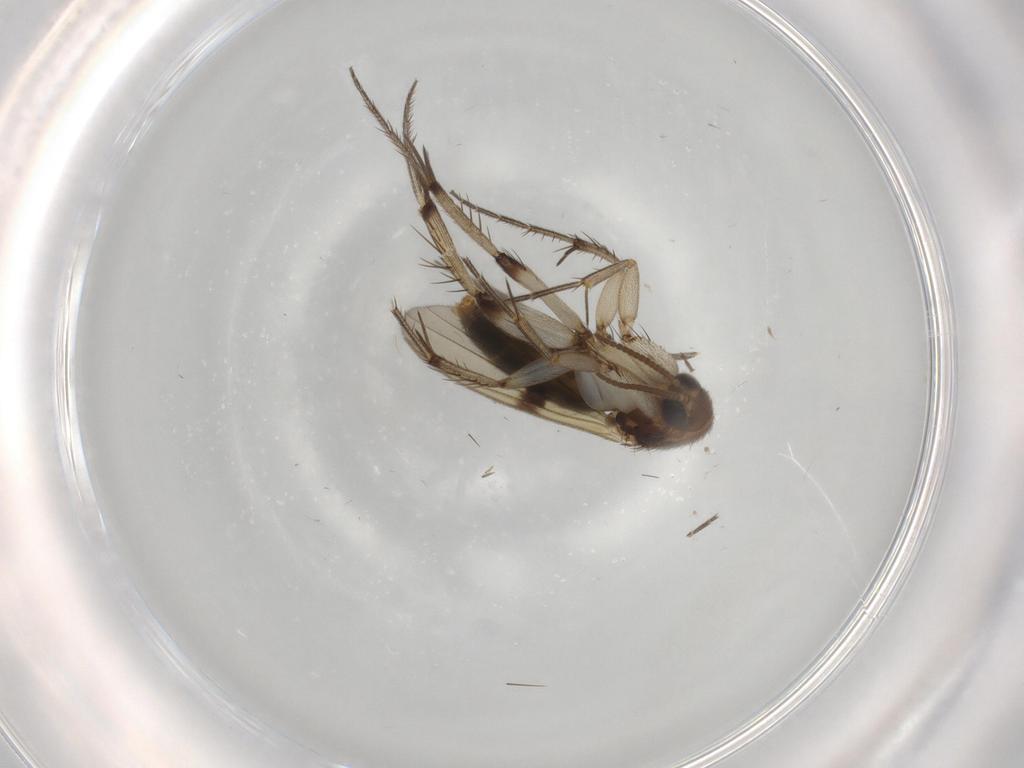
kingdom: Animalia
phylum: Arthropoda
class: Insecta
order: Diptera
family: Mycetophilidae
